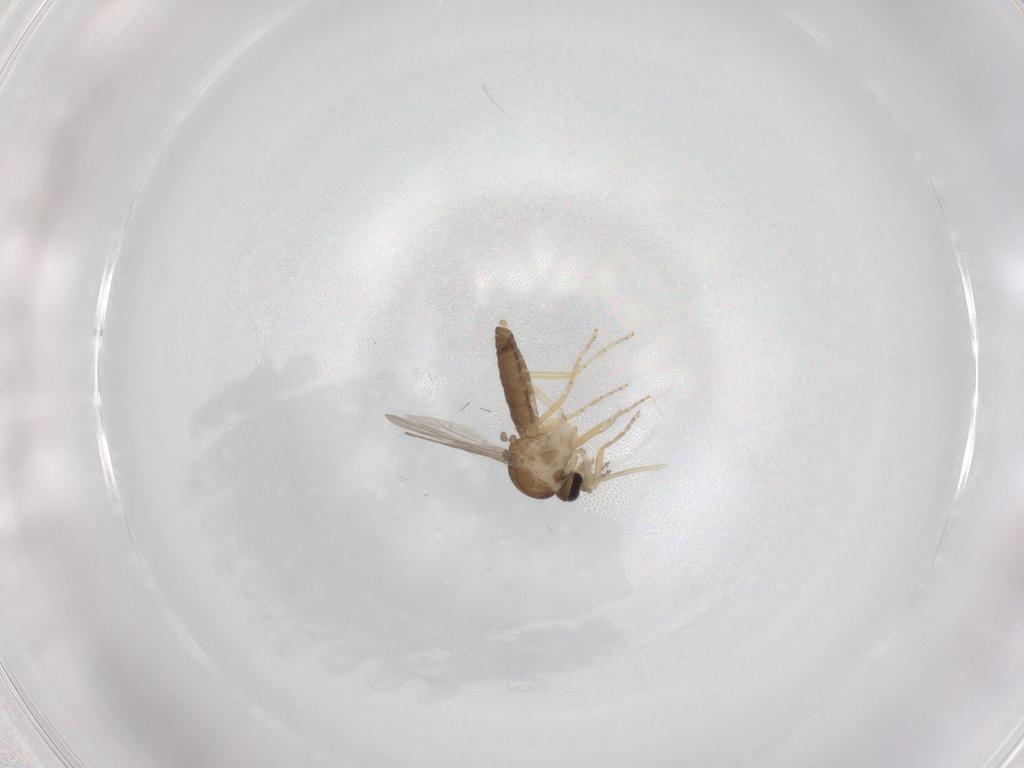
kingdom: Animalia
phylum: Arthropoda
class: Insecta
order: Diptera
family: Ceratopogonidae
